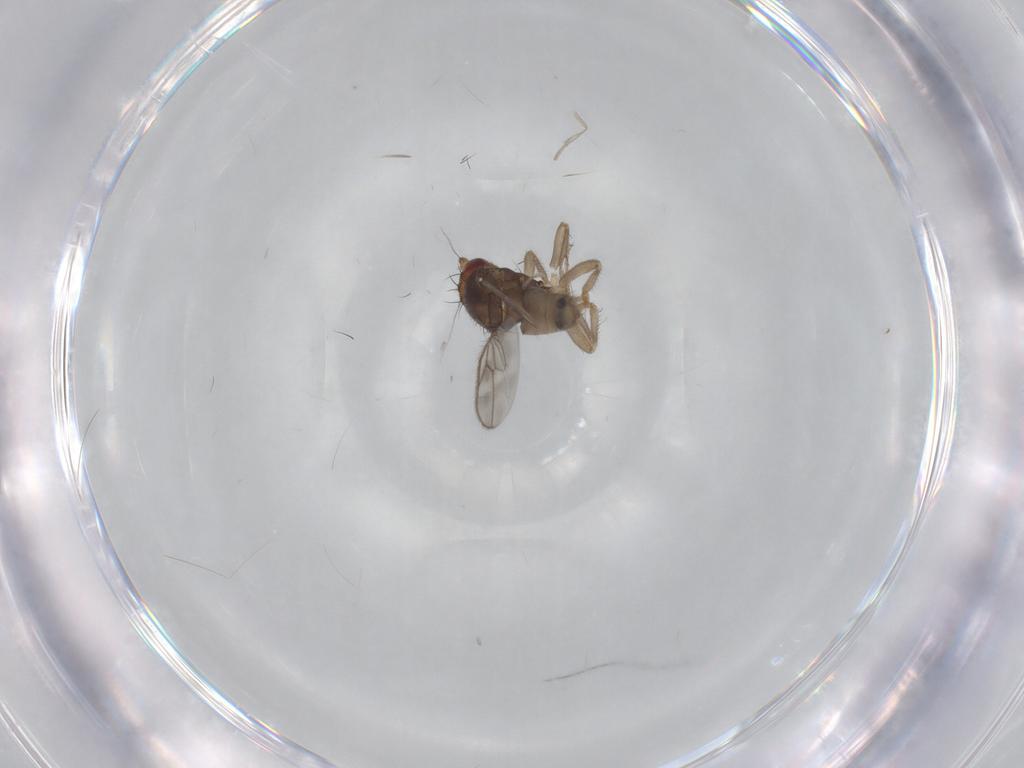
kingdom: Animalia
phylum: Arthropoda
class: Insecta
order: Diptera
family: Sphaeroceridae
